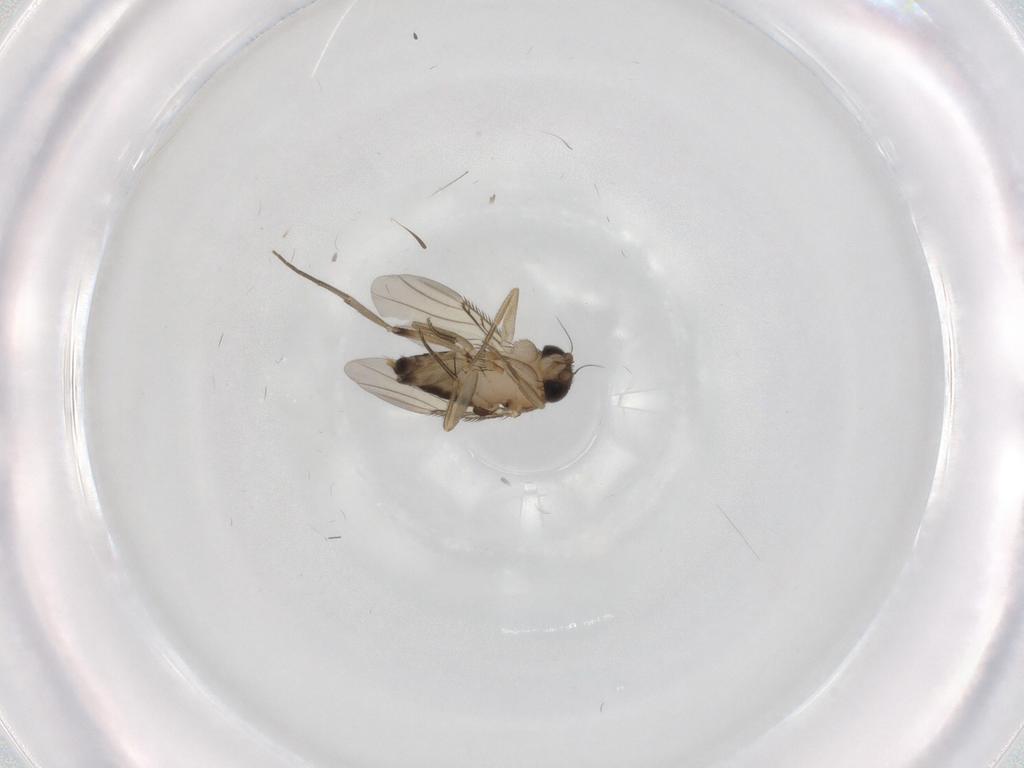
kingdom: Animalia
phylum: Arthropoda
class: Insecta
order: Diptera
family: Phoridae
